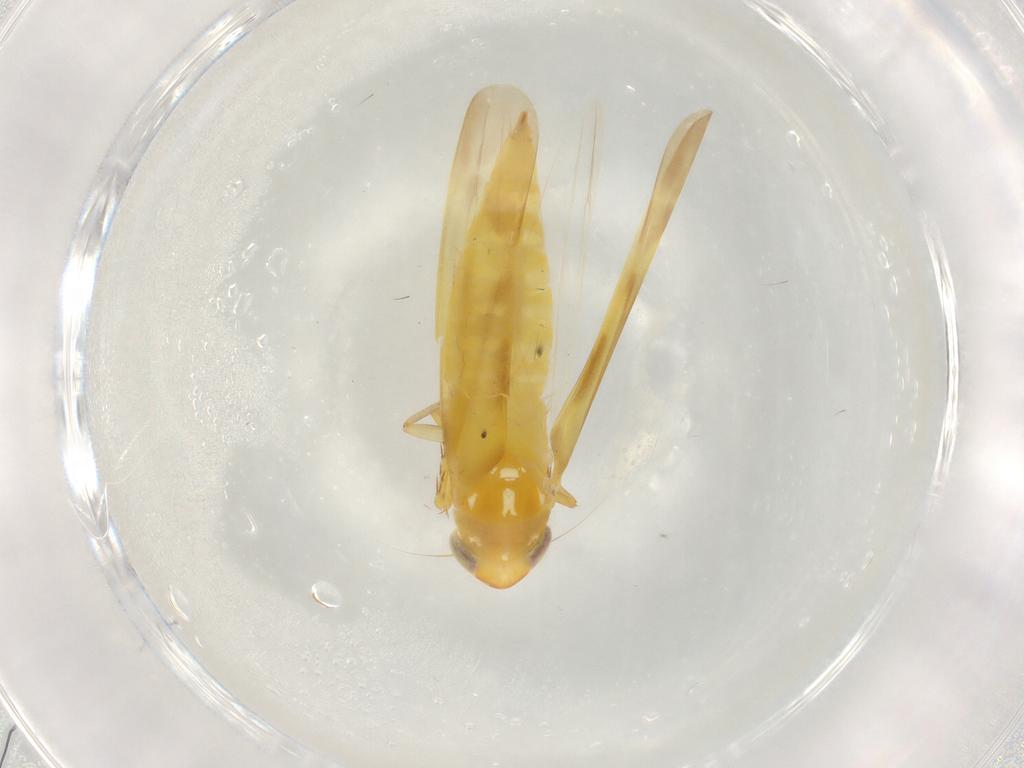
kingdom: Animalia
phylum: Arthropoda
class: Insecta
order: Hemiptera
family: Cicadellidae
